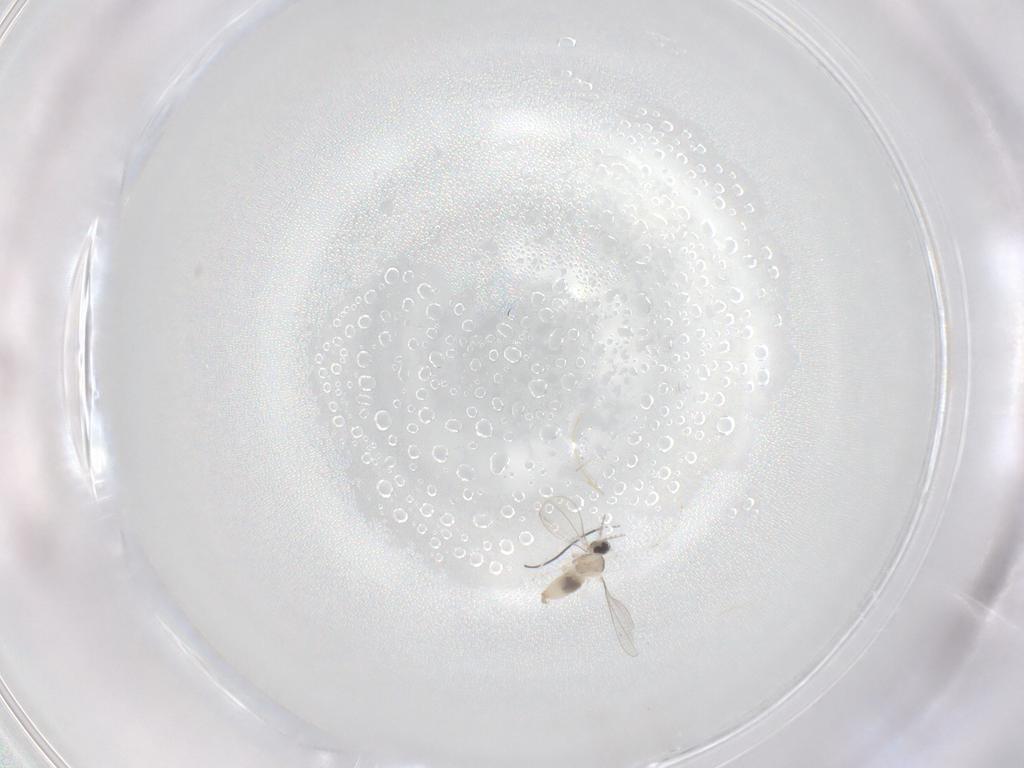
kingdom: Animalia
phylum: Arthropoda
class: Insecta
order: Diptera
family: Cecidomyiidae
